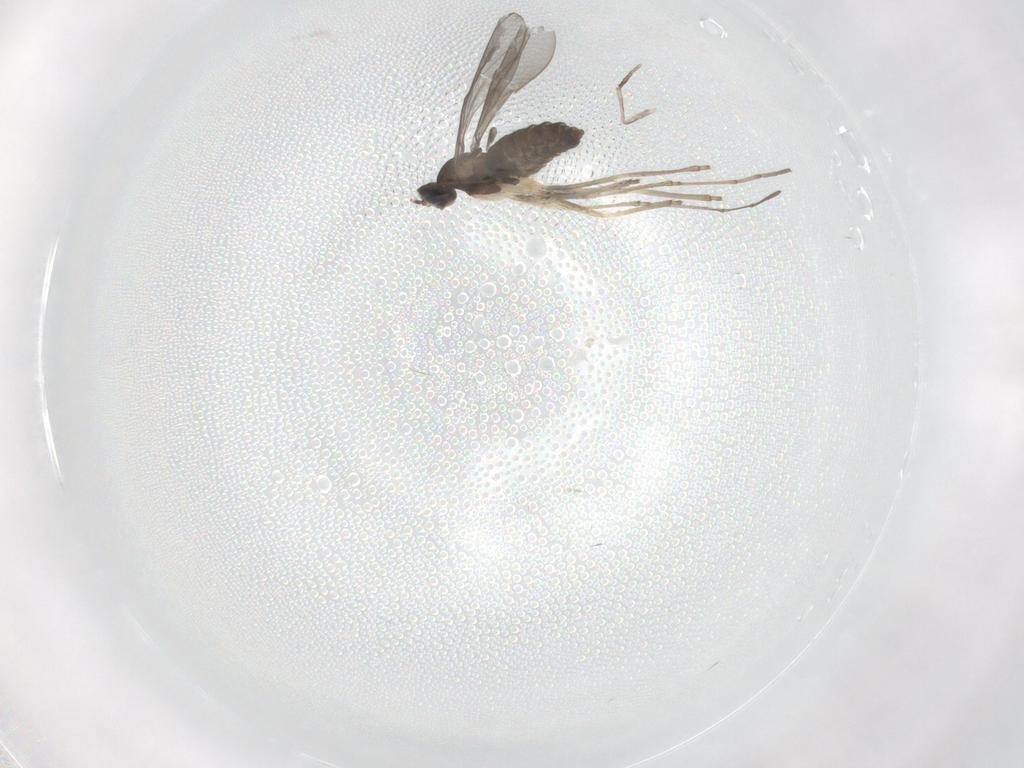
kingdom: Animalia
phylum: Arthropoda
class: Insecta
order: Diptera
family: Cecidomyiidae
